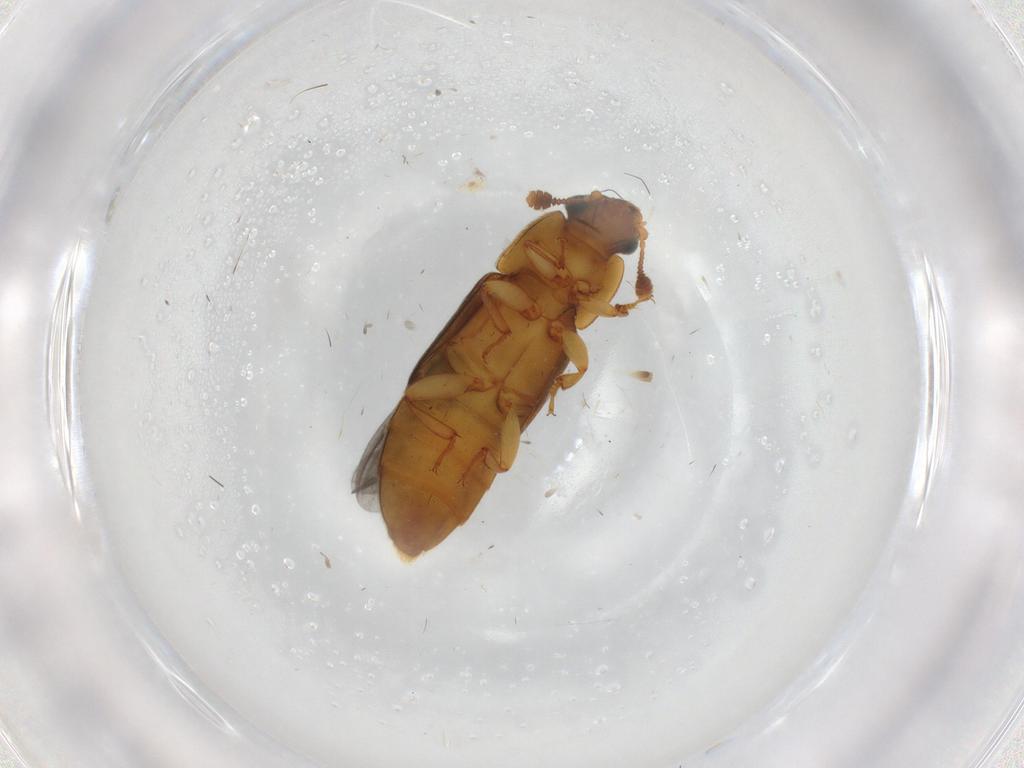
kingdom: Animalia
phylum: Arthropoda
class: Insecta
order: Coleoptera
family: Nitidulidae
